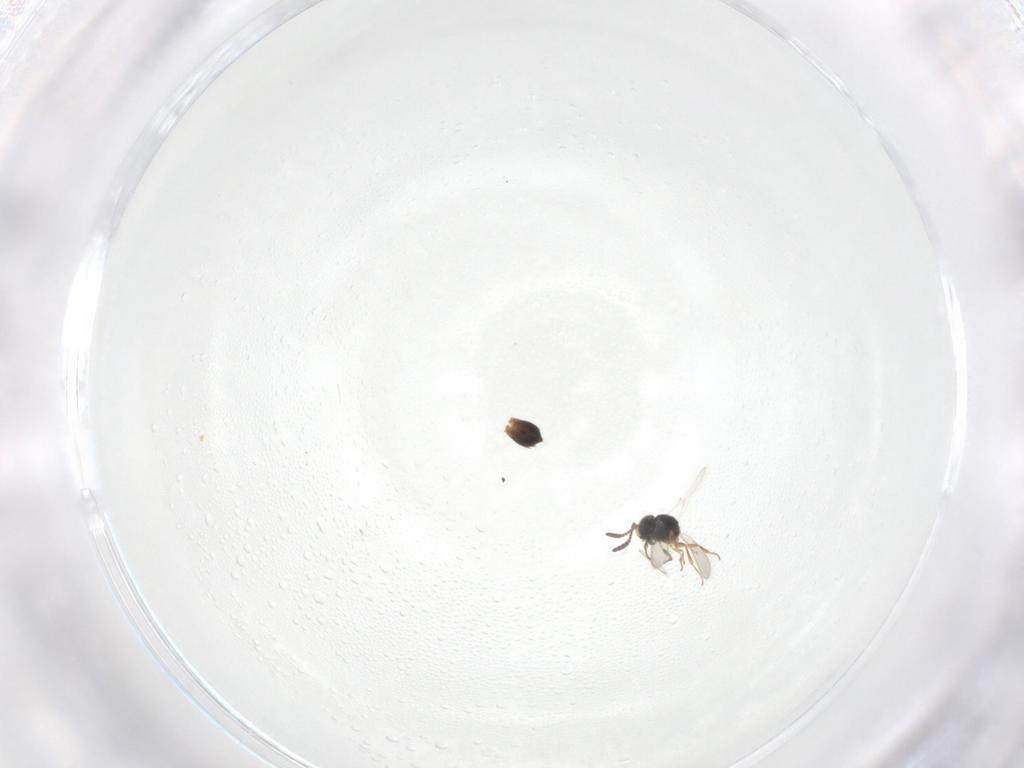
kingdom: Animalia
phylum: Arthropoda
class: Insecta
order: Hymenoptera
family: Scelionidae
